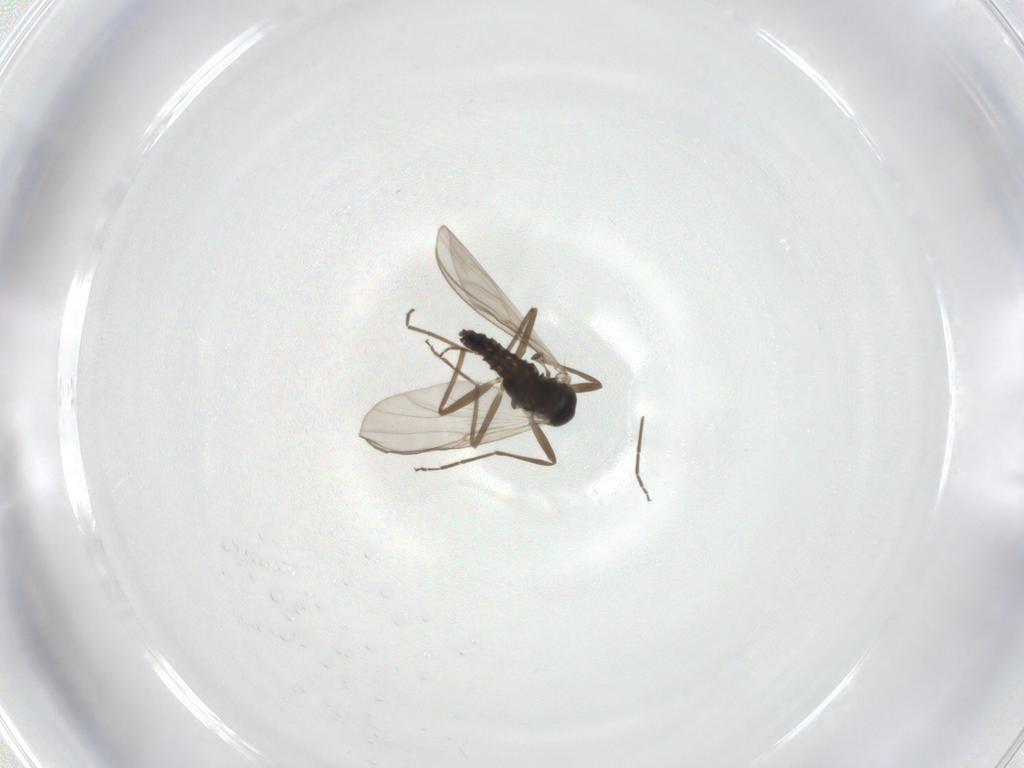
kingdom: Animalia
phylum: Arthropoda
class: Insecta
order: Diptera
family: Chironomidae
